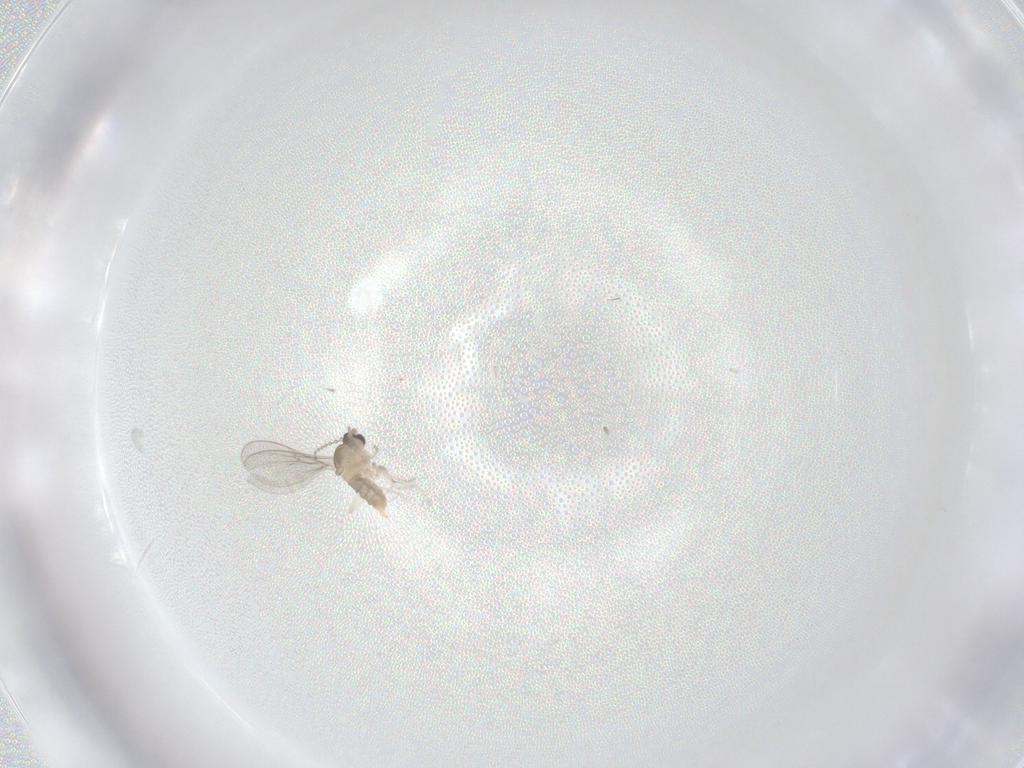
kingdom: Animalia
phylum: Arthropoda
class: Insecta
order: Diptera
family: Cecidomyiidae
